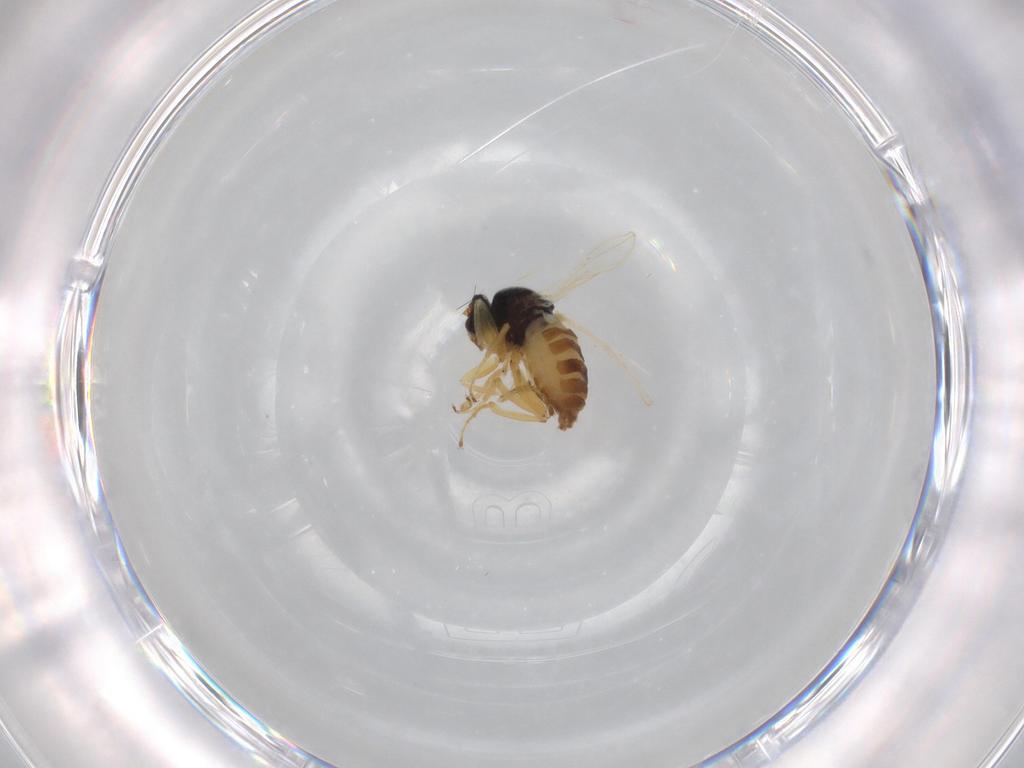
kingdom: Animalia
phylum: Arthropoda
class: Insecta
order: Diptera
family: Hybotidae
